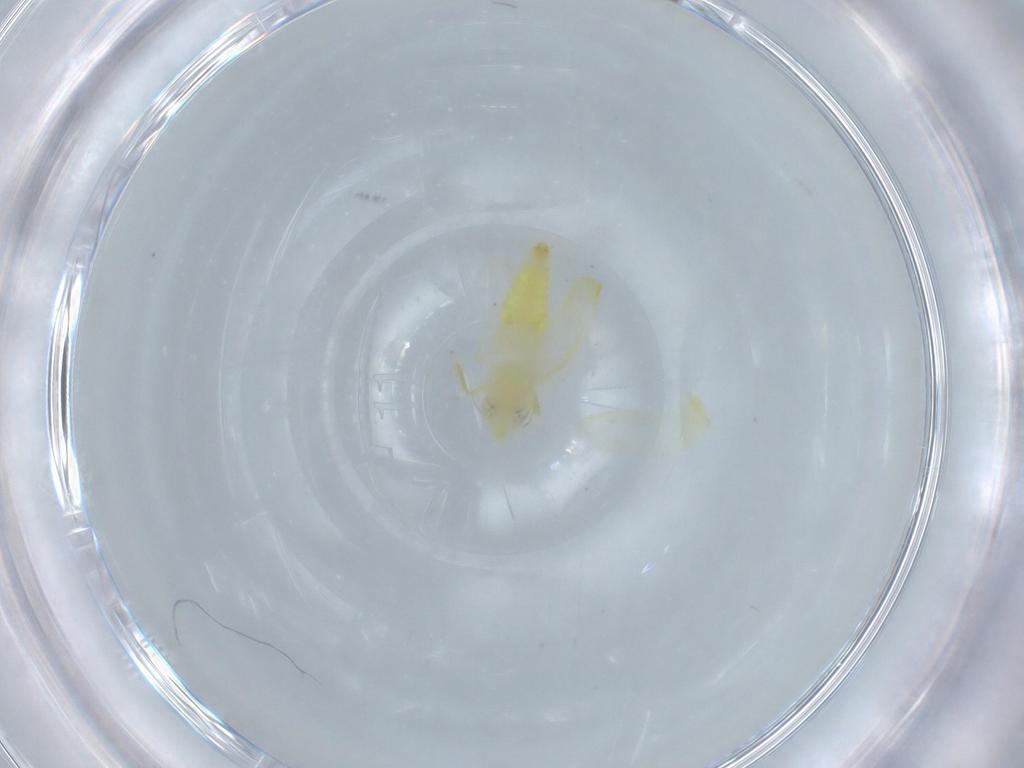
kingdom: Animalia
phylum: Arthropoda
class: Insecta
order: Hemiptera
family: Cicadellidae
